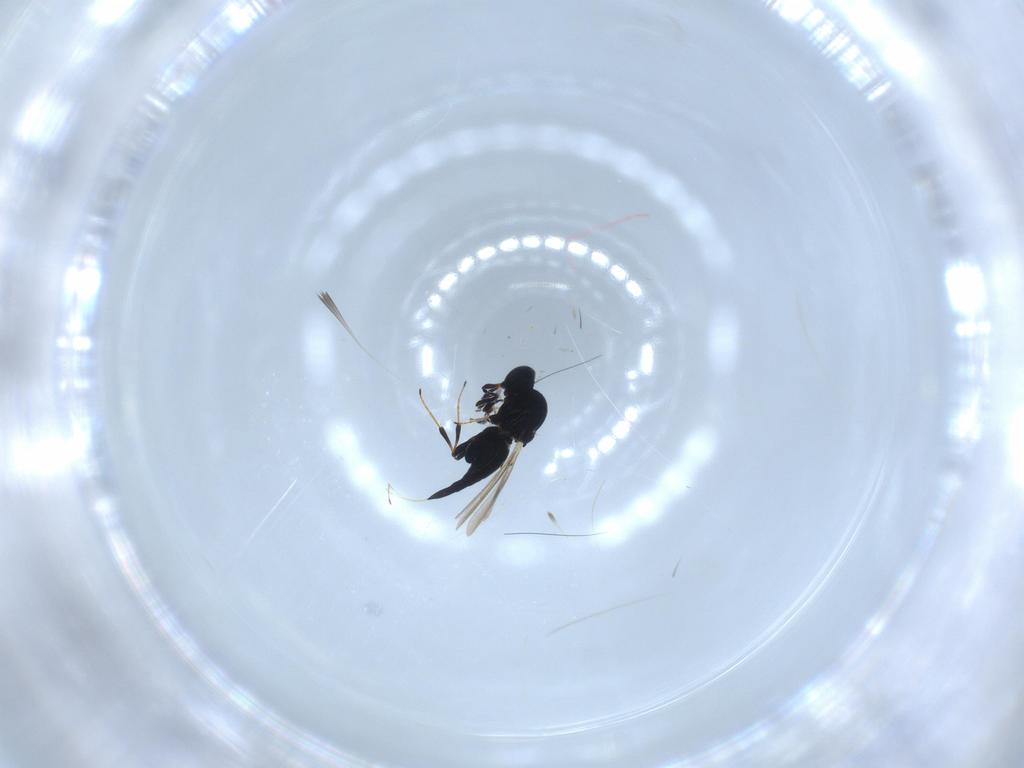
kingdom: Animalia
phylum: Arthropoda
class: Insecta
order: Hymenoptera
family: Platygastridae
